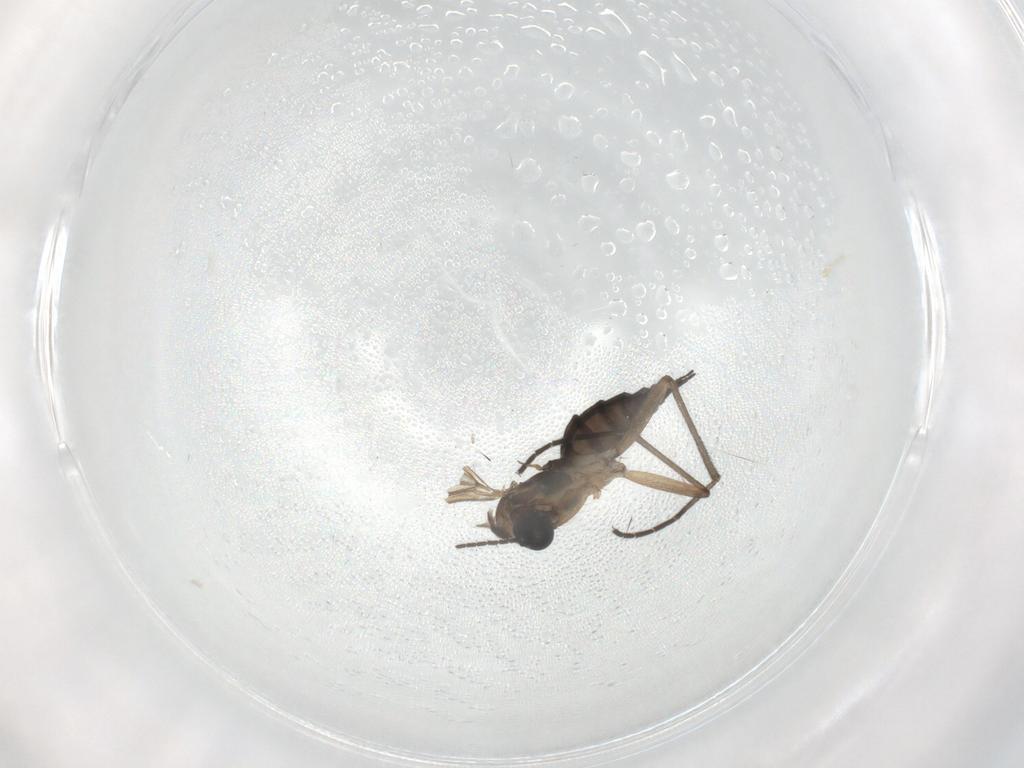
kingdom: Animalia
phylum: Arthropoda
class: Insecta
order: Diptera
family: Sciaridae
